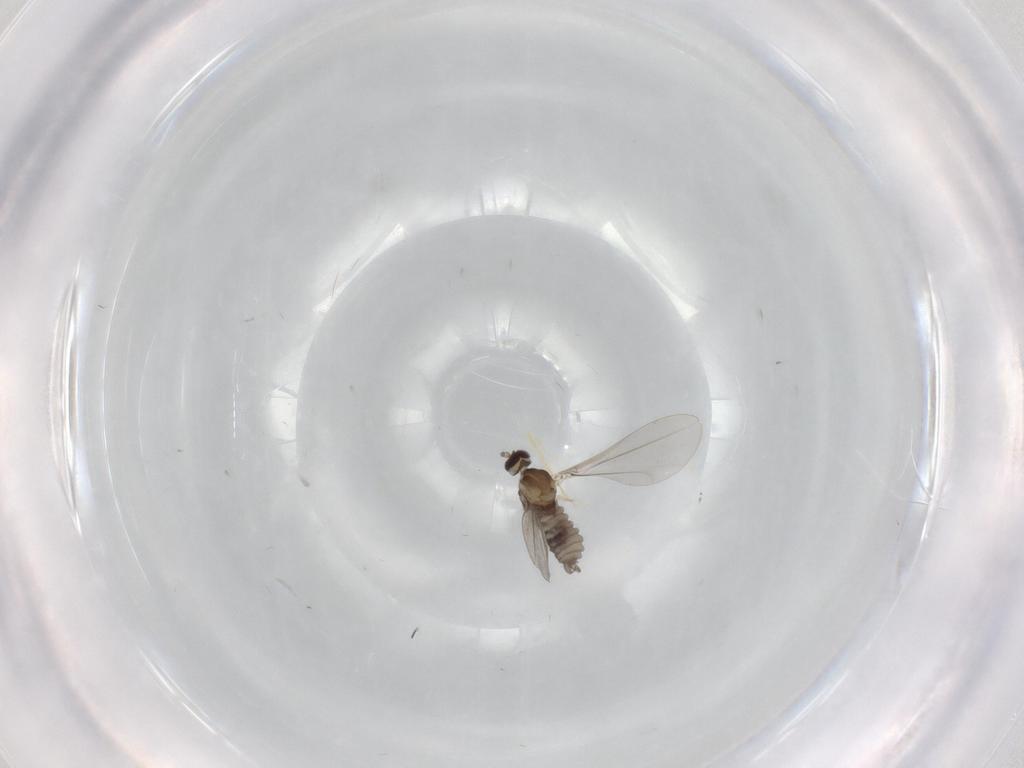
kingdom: Animalia
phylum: Arthropoda
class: Insecta
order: Diptera
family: Cecidomyiidae
